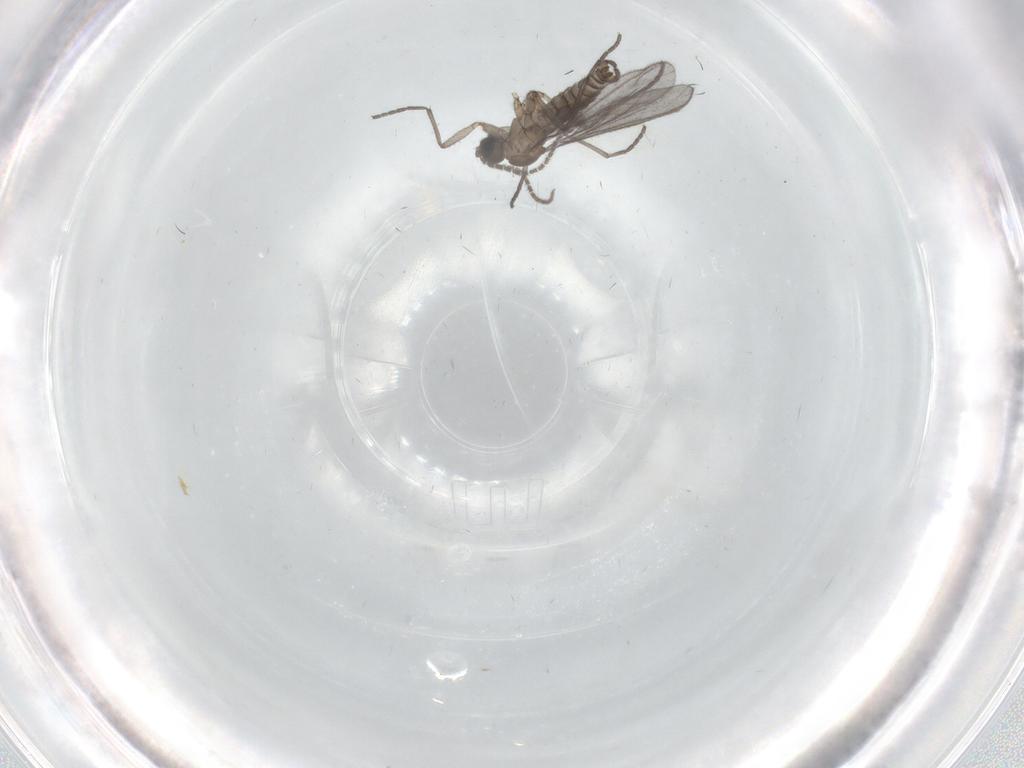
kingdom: Animalia
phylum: Arthropoda
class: Insecta
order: Diptera
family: Sciaridae
